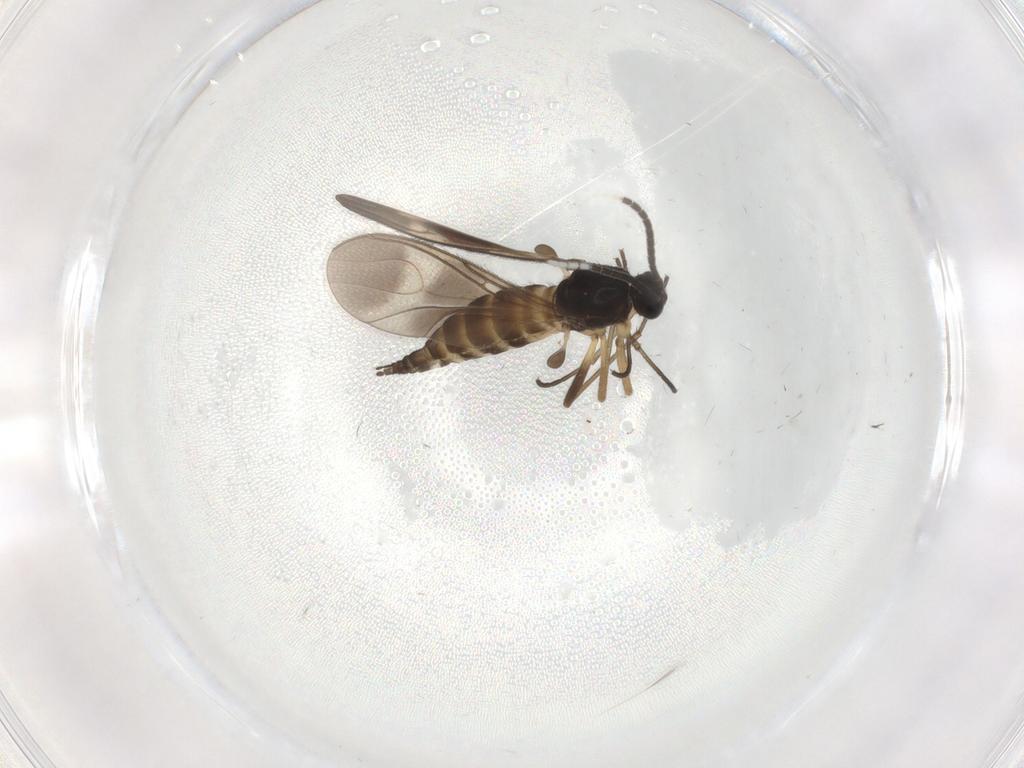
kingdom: Animalia
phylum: Arthropoda
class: Insecta
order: Diptera
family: Sciaridae
